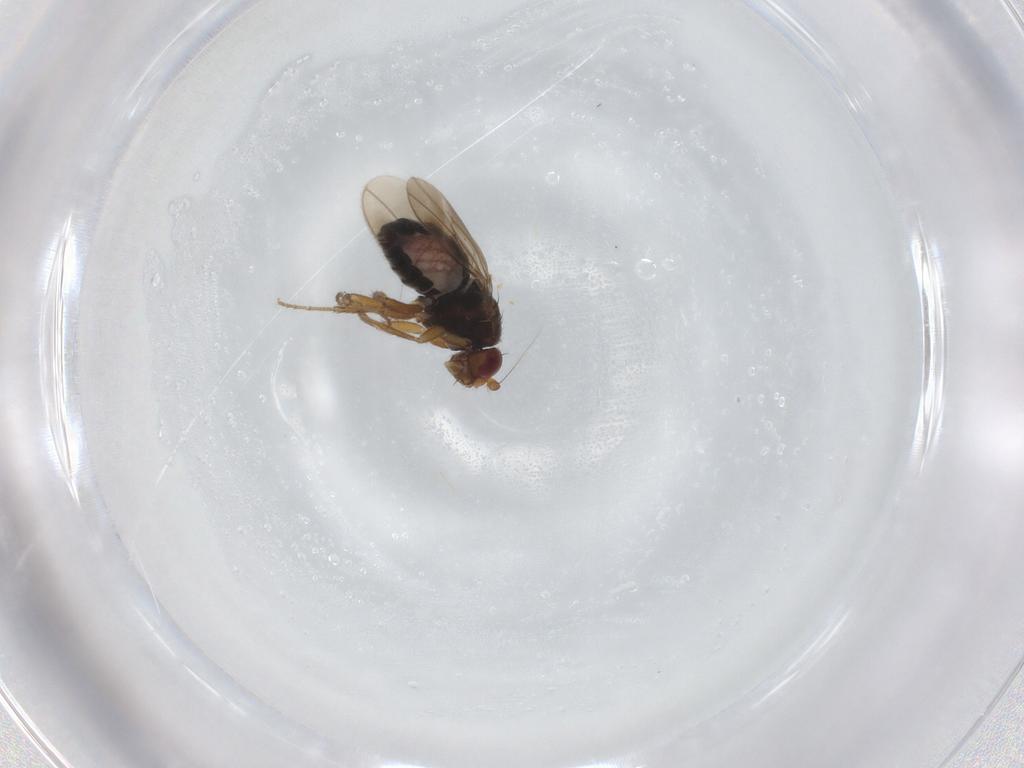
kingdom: Animalia
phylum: Arthropoda
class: Insecta
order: Diptera
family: Sphaeroceridae
